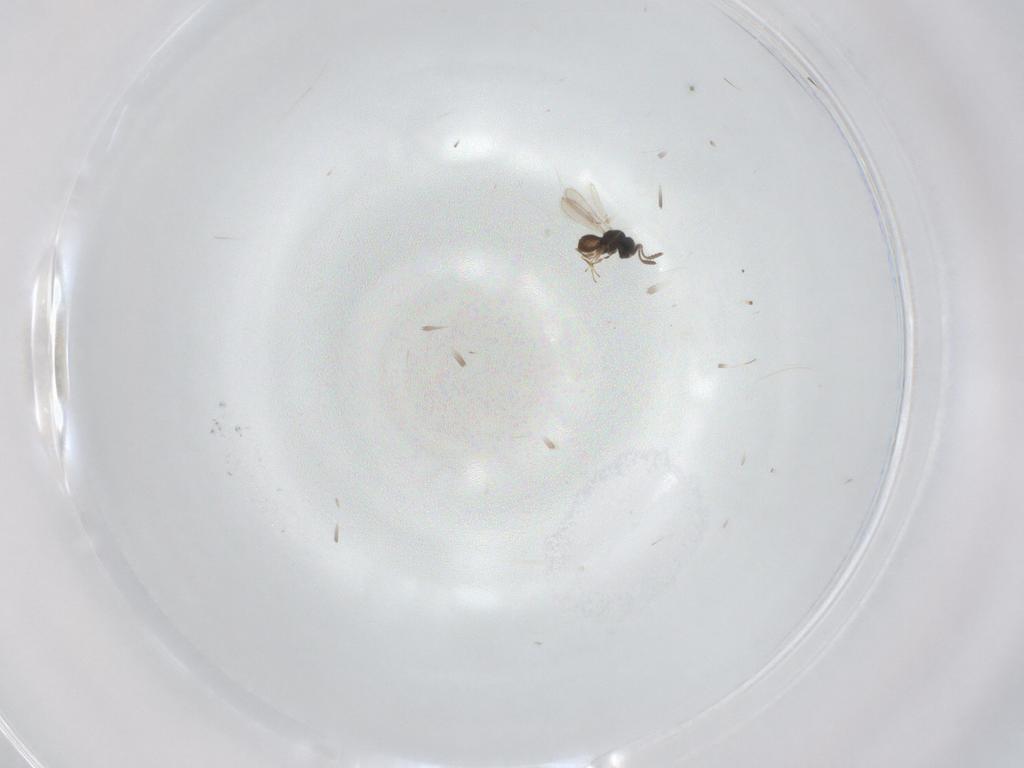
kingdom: Animalia
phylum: Arthropoda
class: Insecta
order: Hymenoptera
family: Scelionidae
